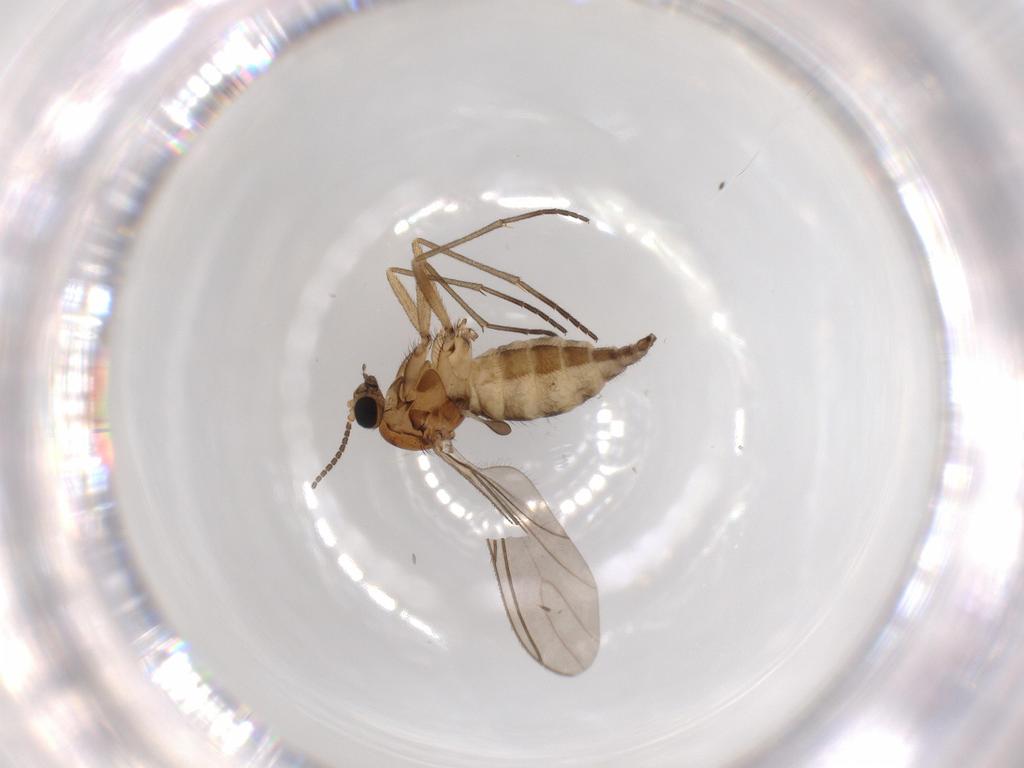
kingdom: Animalia
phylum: Arthropoda
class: Insecta
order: Diptera
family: Sciaridae
